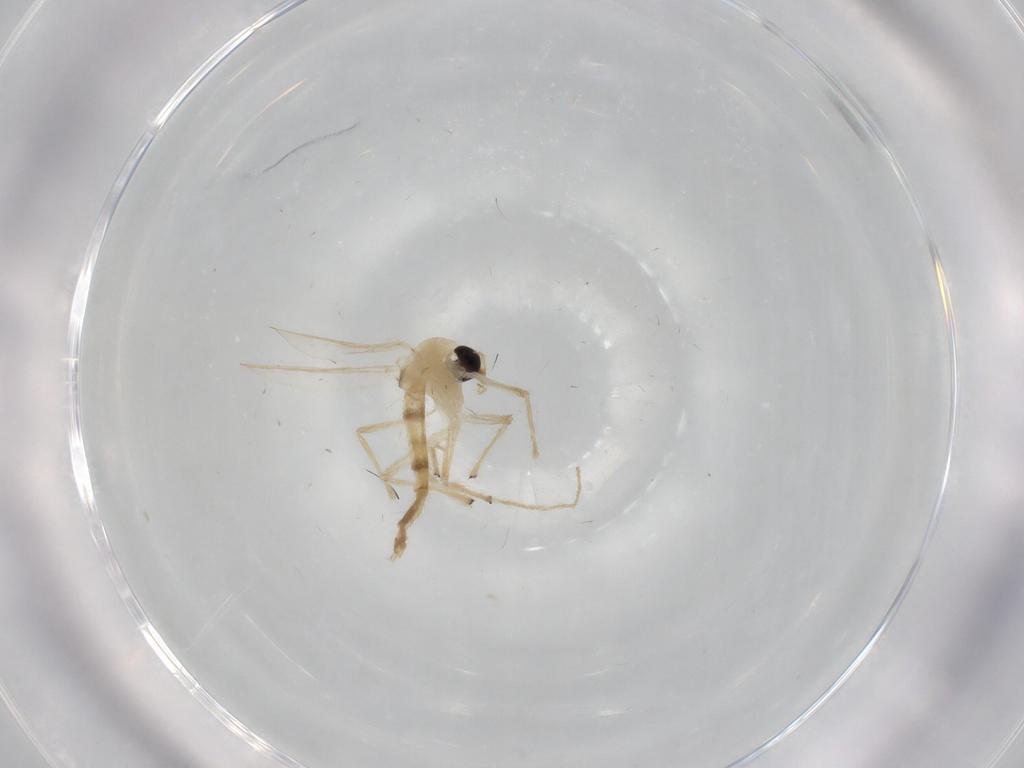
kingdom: Animalia
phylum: Arthropoda
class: Insecta
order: Diptera
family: Chironomidae
